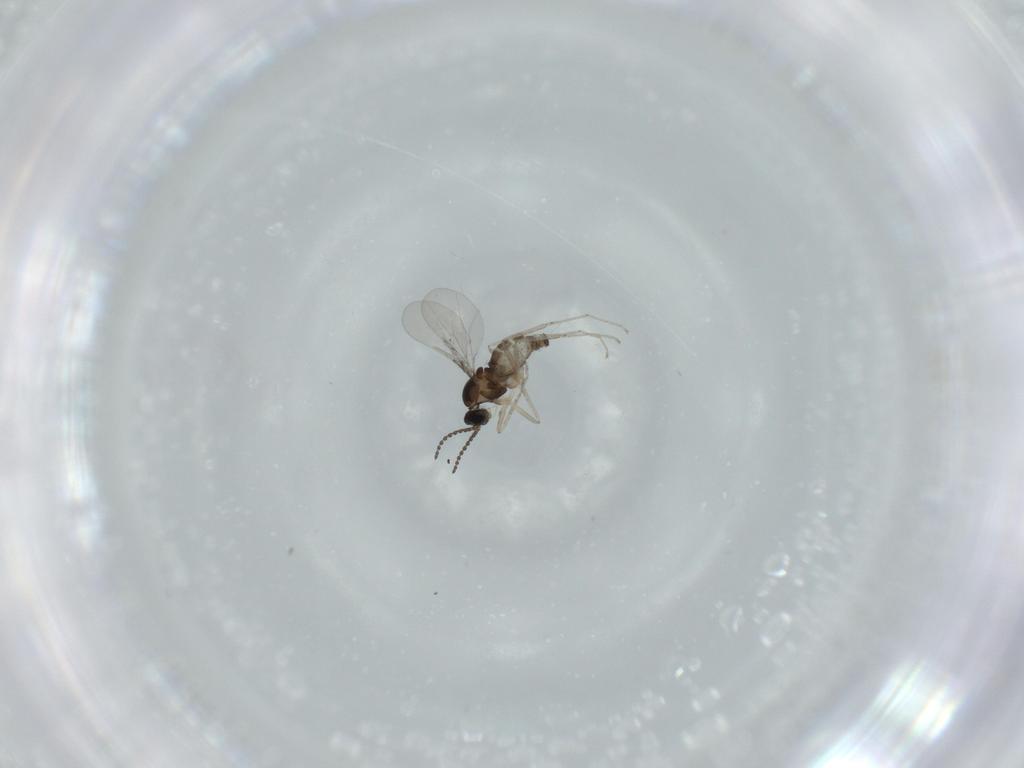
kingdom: Animalia
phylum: Arthropoda
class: Insecta
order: Diptera
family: Cecidomyiidae
